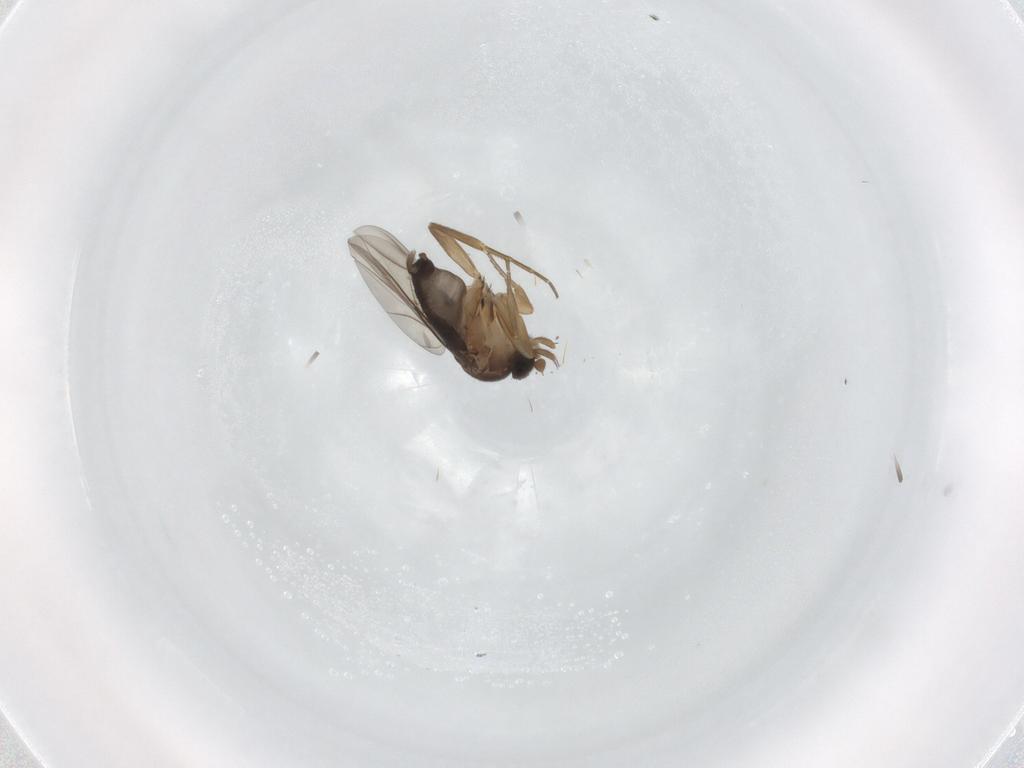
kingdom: Animalia
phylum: Arthropoda
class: Insecta
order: Diptera
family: Phoridae
